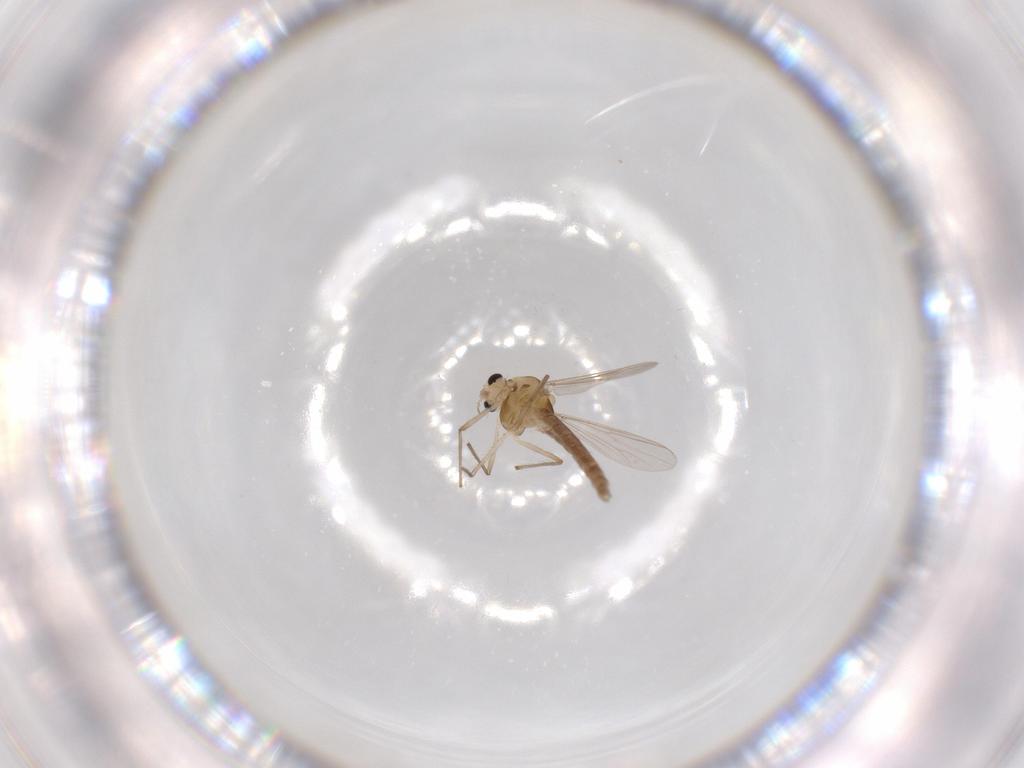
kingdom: Animalia
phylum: Arthropoda
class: Insecta
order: Diptera
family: Chironomidae
